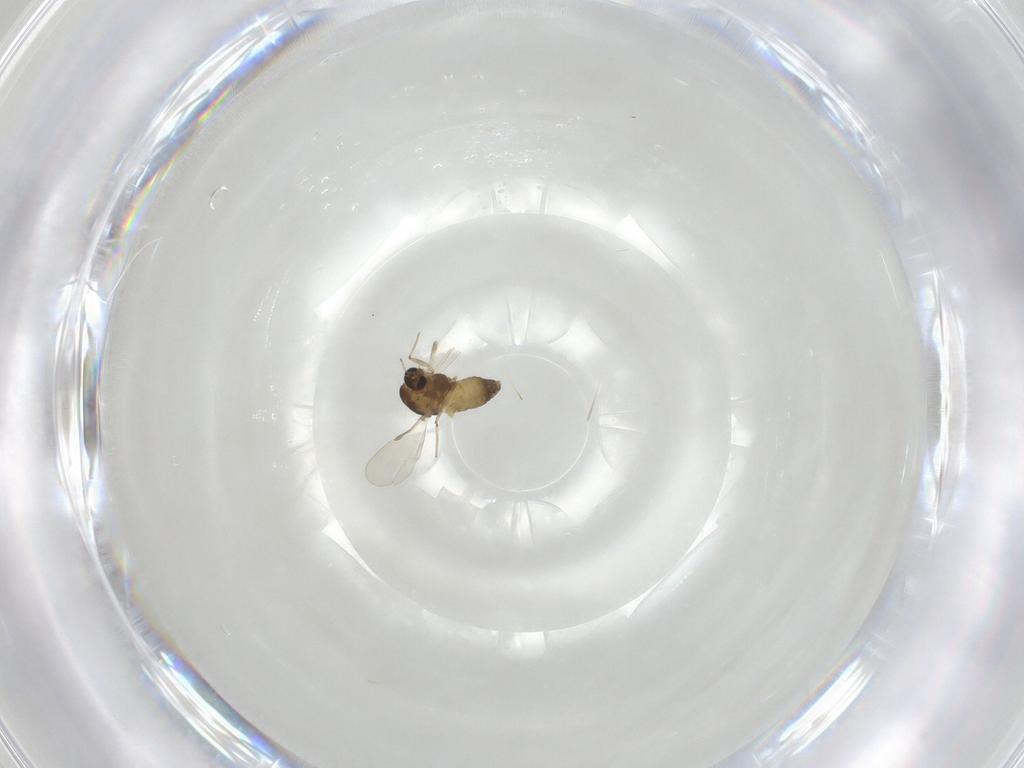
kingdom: Animalia
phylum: Arthropoda
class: Insecta
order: Diptera
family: Chironomidae
